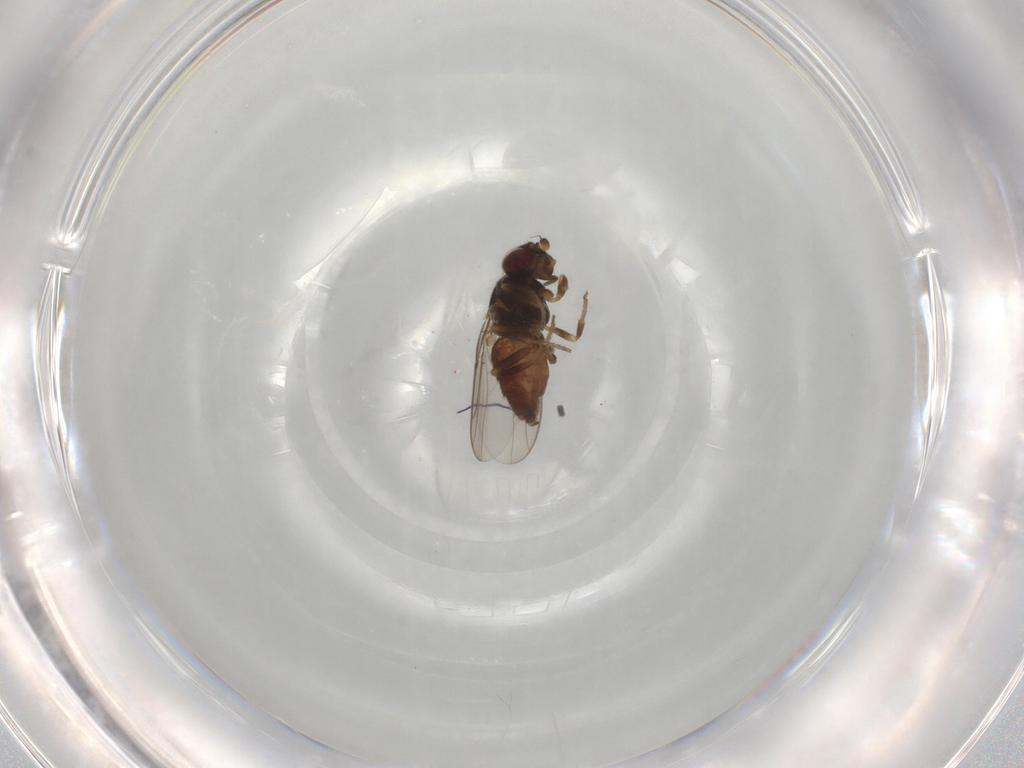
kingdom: Animalia
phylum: Arthropoda
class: Insecta
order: Diptera
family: Chloropidae
